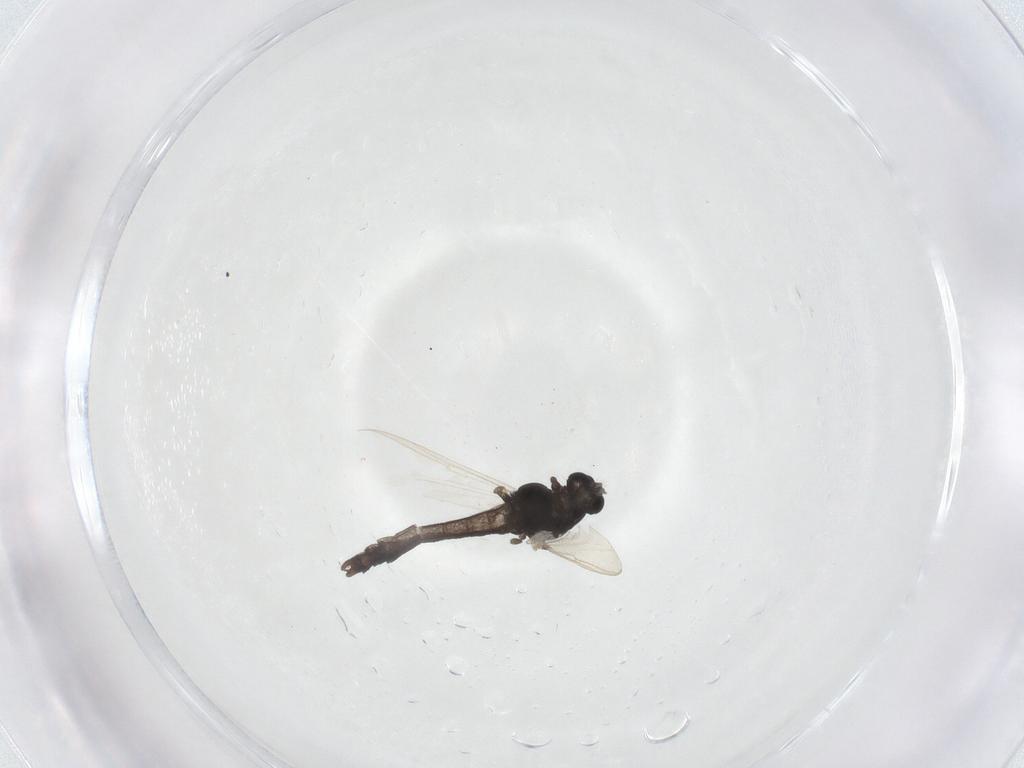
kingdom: Animalia
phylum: Arthropoda
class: Insecta
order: Diptera
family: Chironomidae
